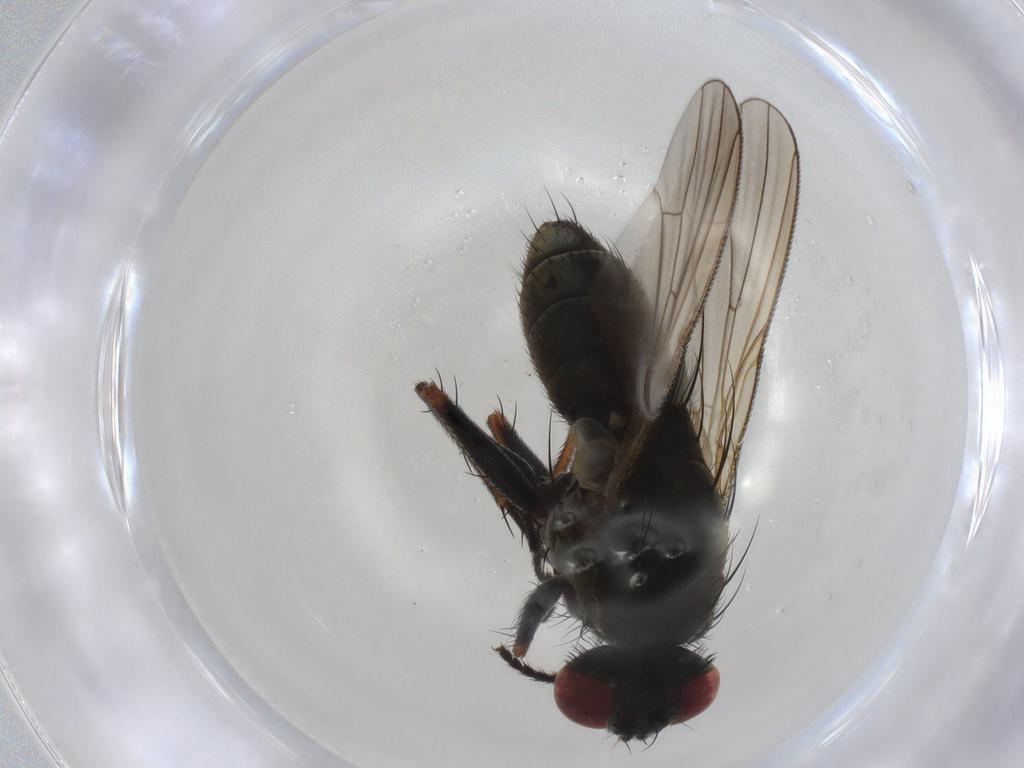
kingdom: Animalia
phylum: Arthropoda
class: Insecta
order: Diptera
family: Muscidae
